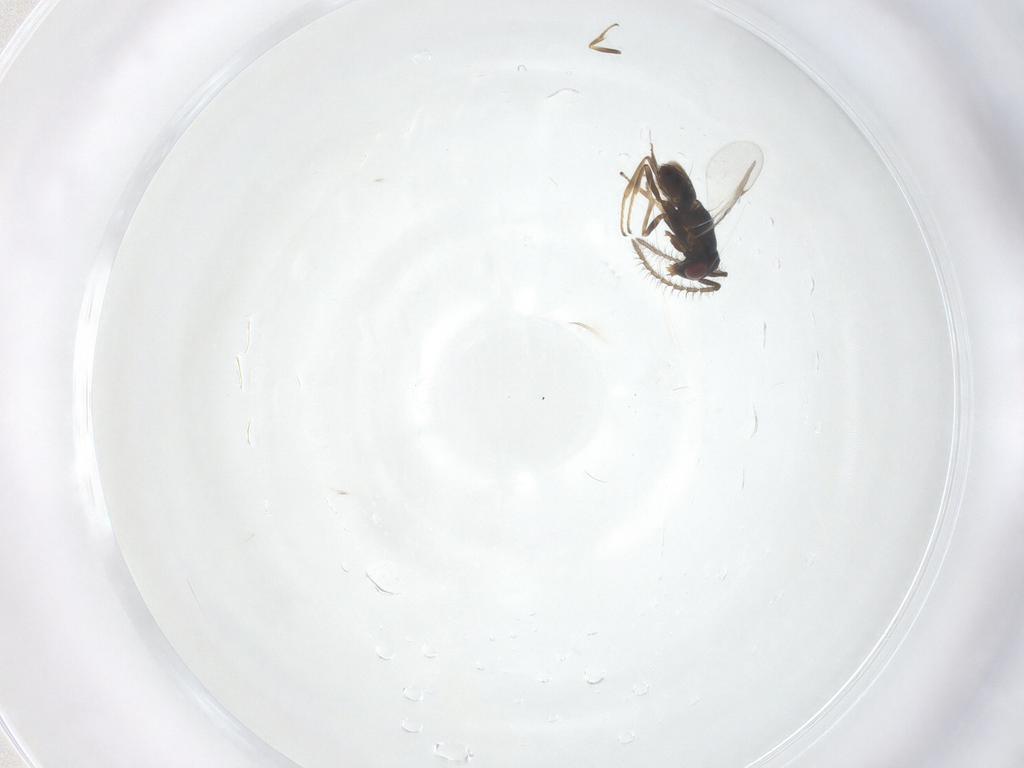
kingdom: Animalia
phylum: Arthropoda
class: Insecta
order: Hymenoptera
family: Encyrtidae
